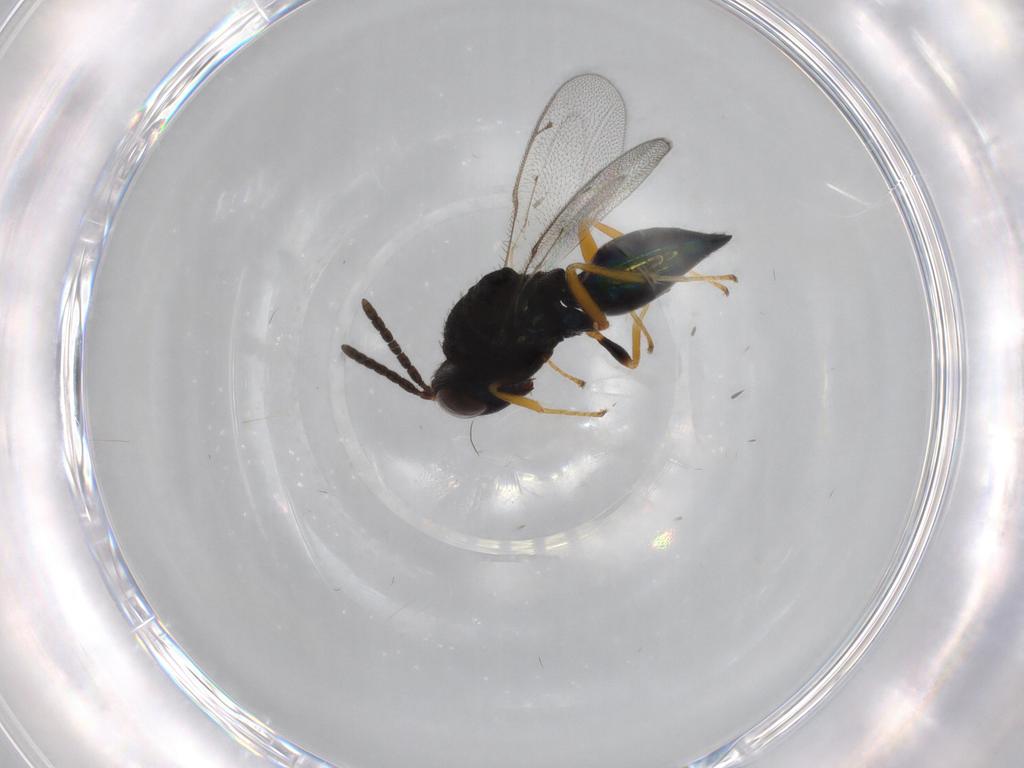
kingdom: Animalia
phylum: Arthropoda
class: Insecta
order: Hymenoptera
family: Pteromalidae
